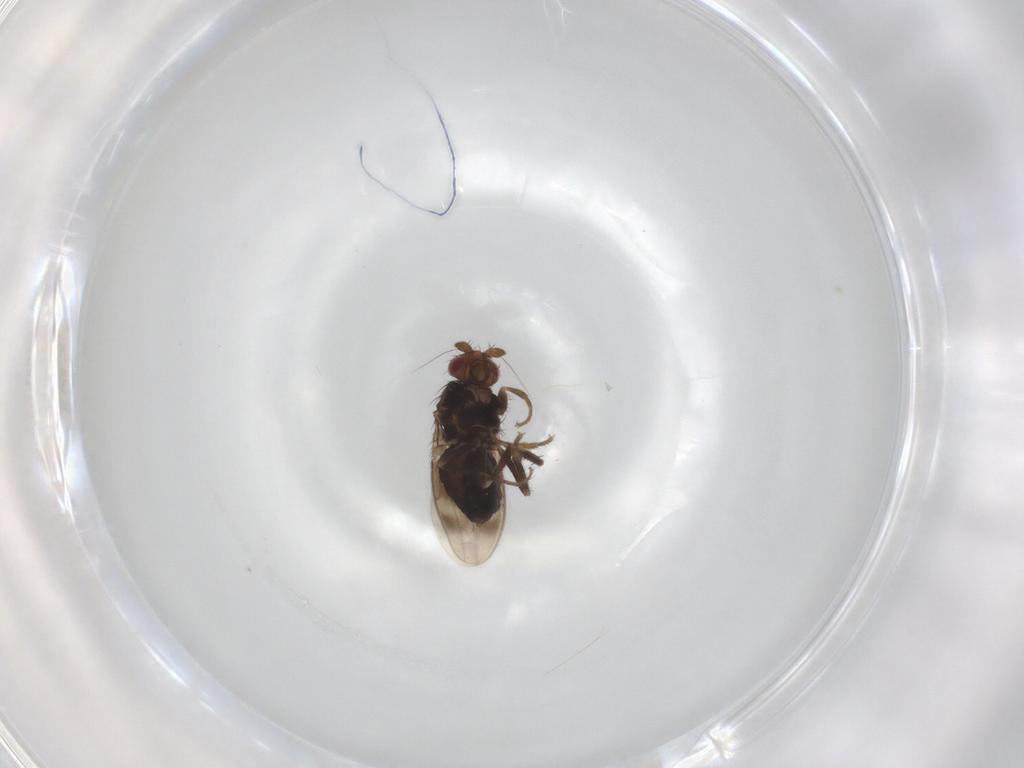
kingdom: Animalia
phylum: Arthropoda
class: Insecta
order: Diptera
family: Sphaeroceridae
